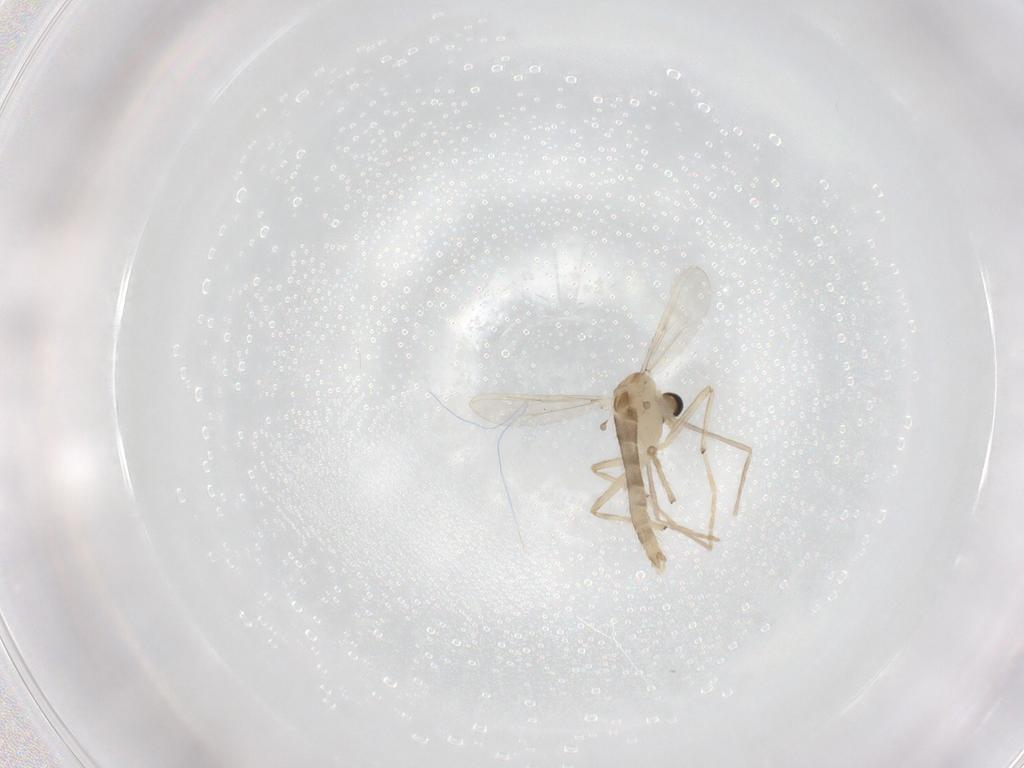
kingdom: Animalia
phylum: Arthropoda
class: Insecta
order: Diptera
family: Chironomidae
